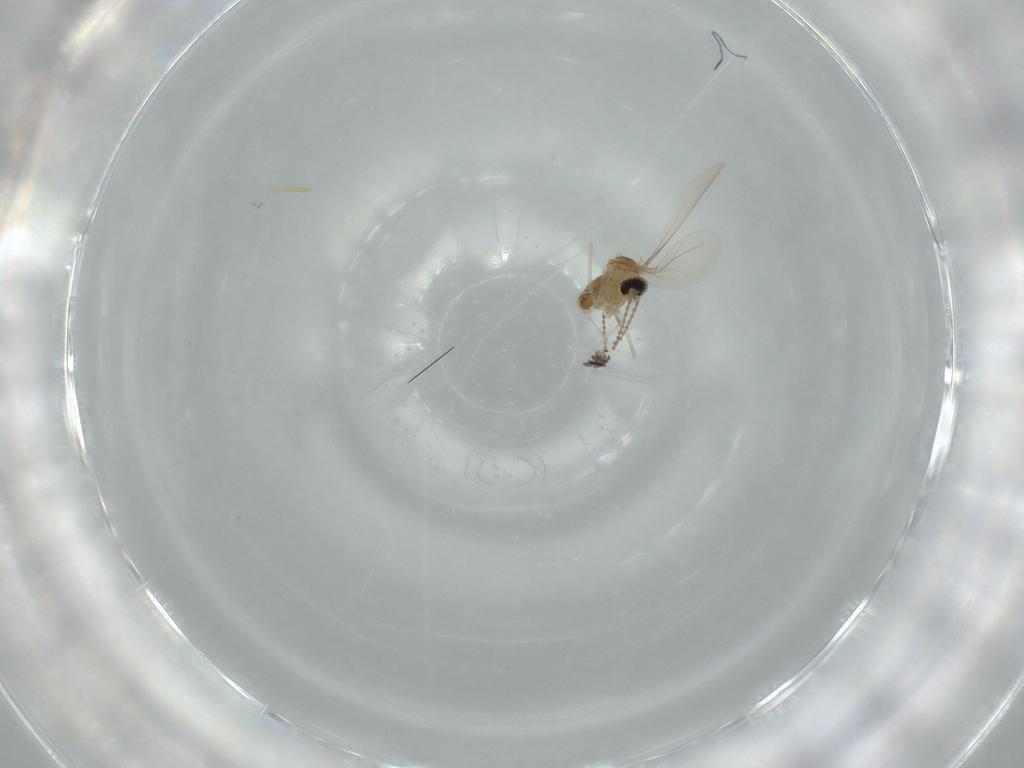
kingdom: Animalia
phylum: Arthropoda
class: Insecta
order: Diptera
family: Cecidomyiidae
